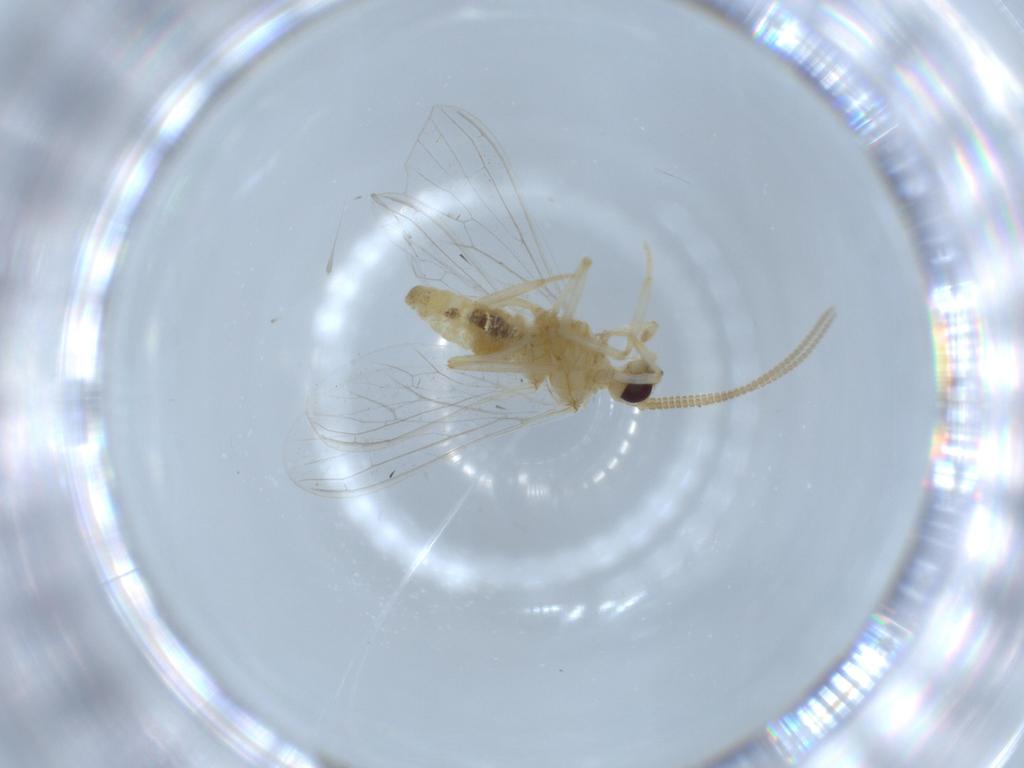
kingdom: Animalia
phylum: Arthropoda
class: Insecta
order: Neuroptera
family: Coniopterygidae
